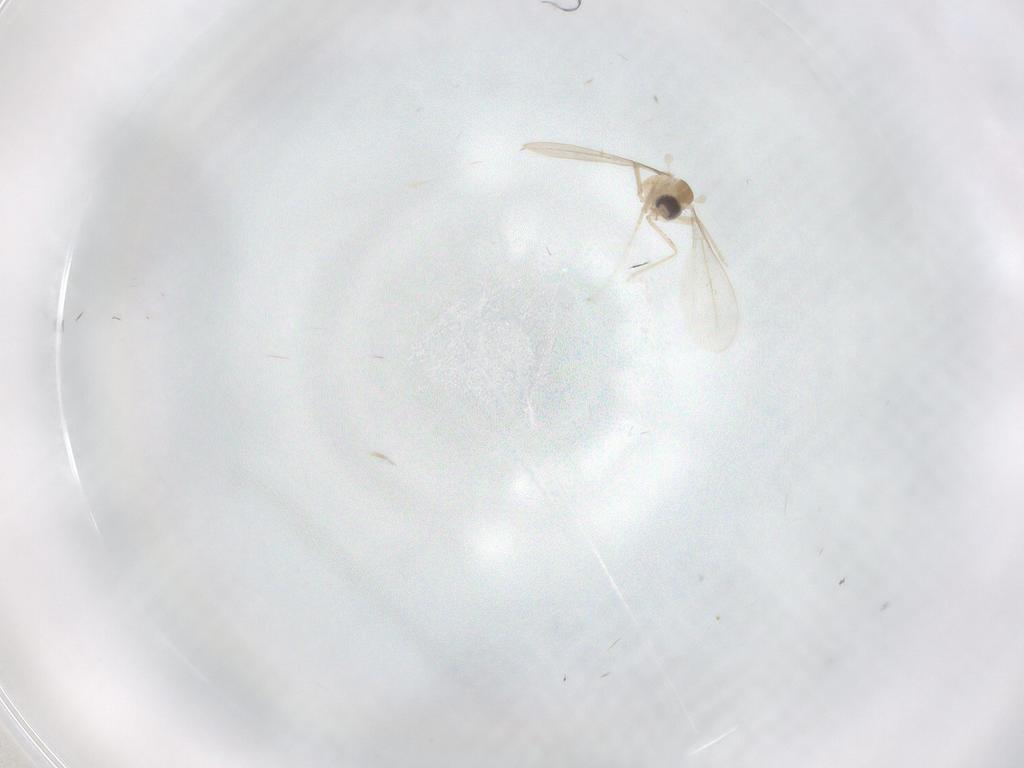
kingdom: Animalia
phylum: Arthropoda
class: Insecta
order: Diptera
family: Cecidomyiidae
